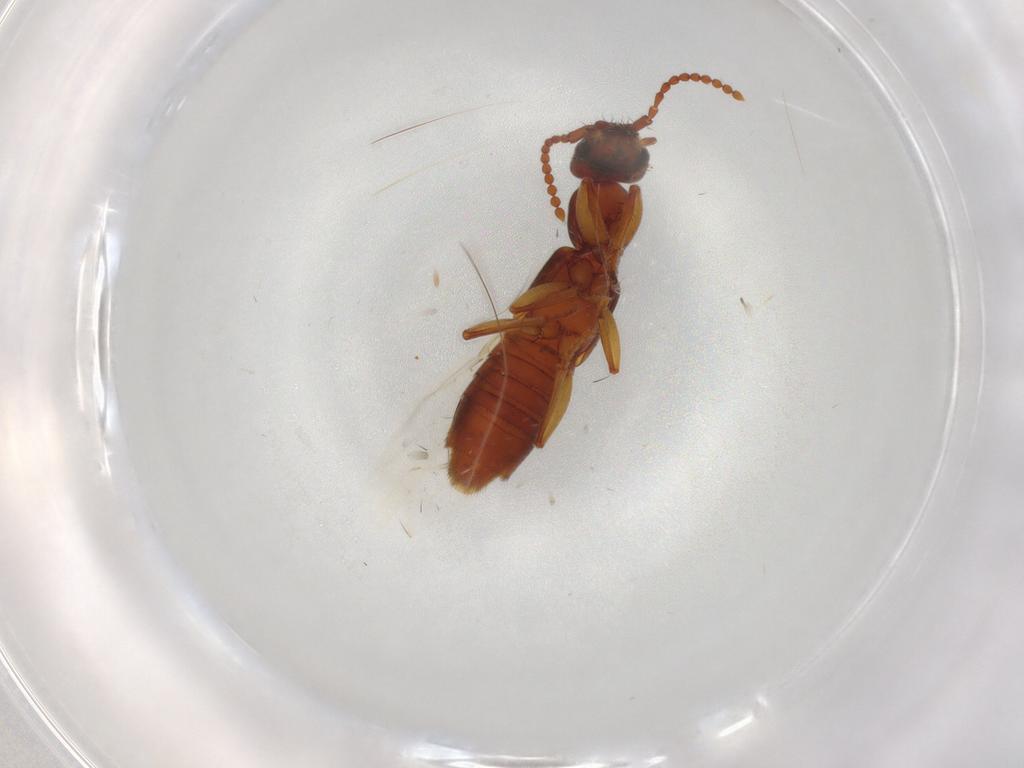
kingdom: Animalia
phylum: Arthropoda
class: Insecta
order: Coleoptera
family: Staphylinidae
